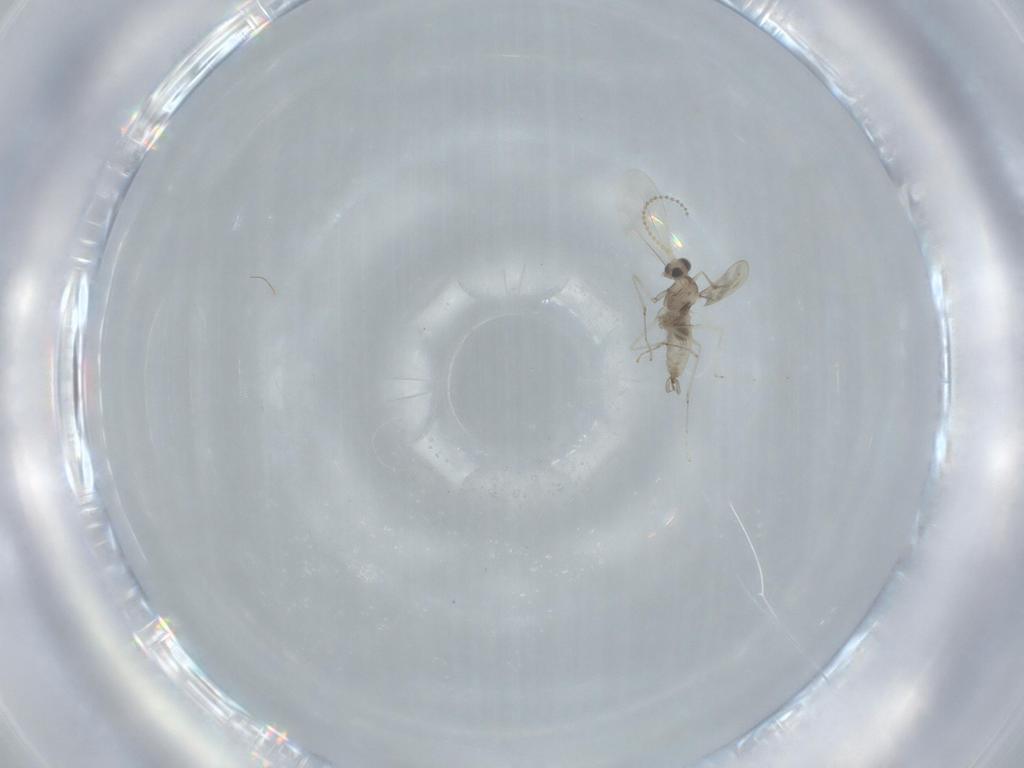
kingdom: Animalia
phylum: Arthropoda
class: Insecta
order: Diptera
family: Cecidomyiidae
